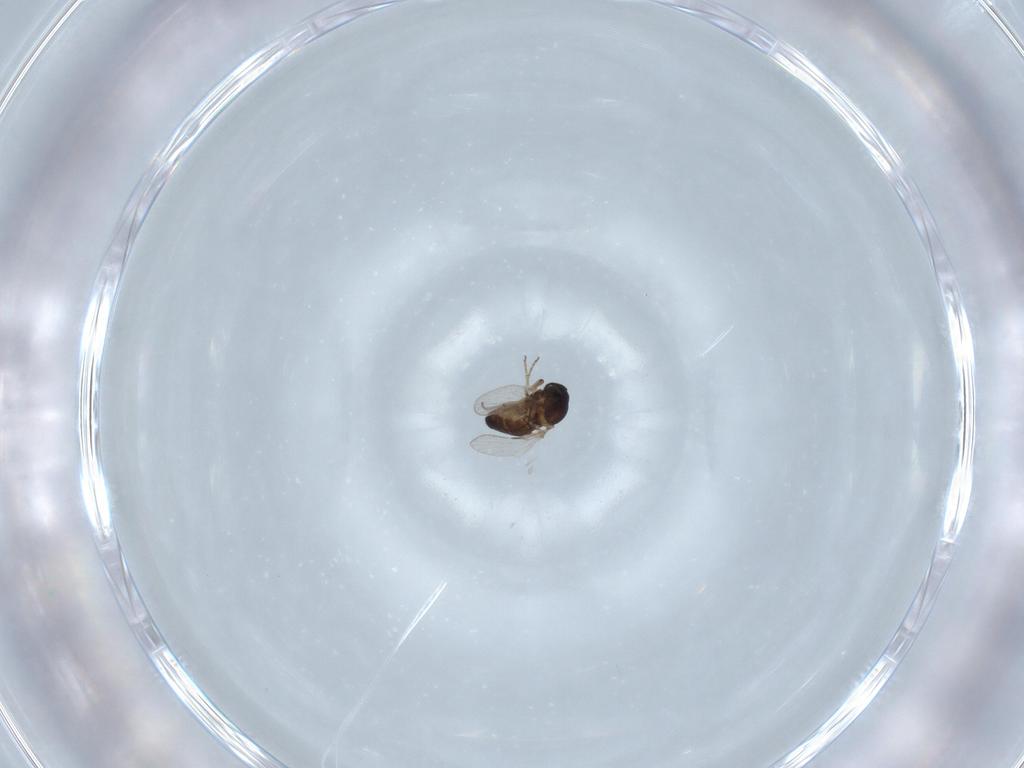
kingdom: Animalia
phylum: Arthropoda
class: Insecta
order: Diptera
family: Ceratopogonidae
